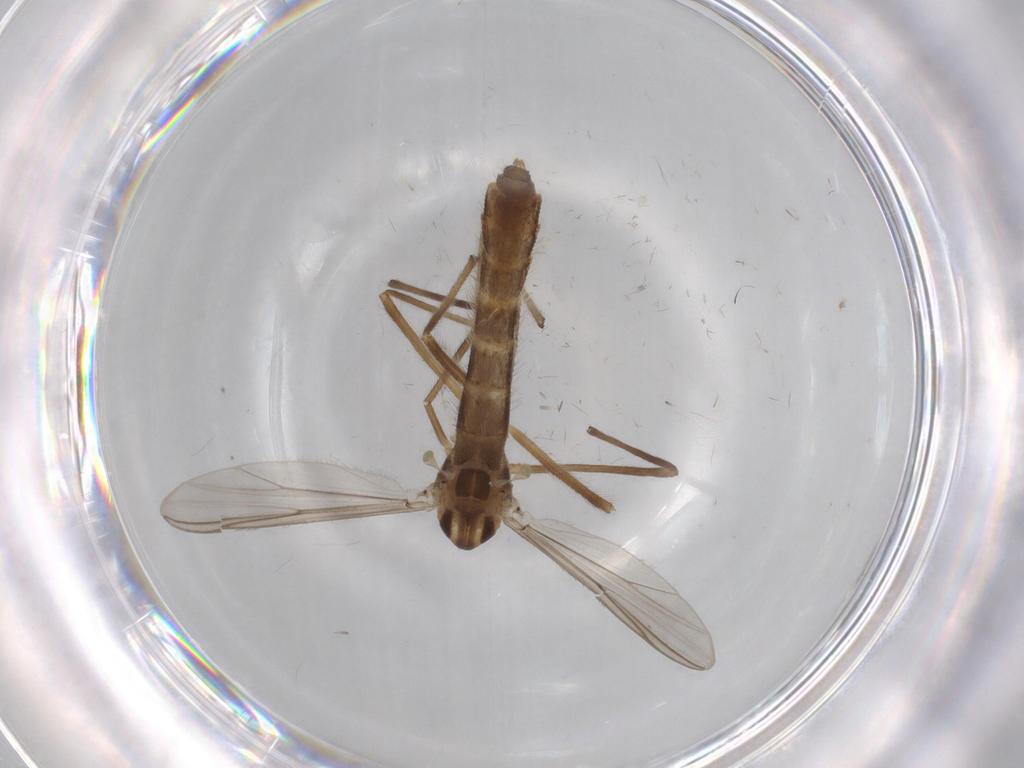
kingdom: Animalia
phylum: Arthropoda
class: Insecta
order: Diptera
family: Chironomidae
